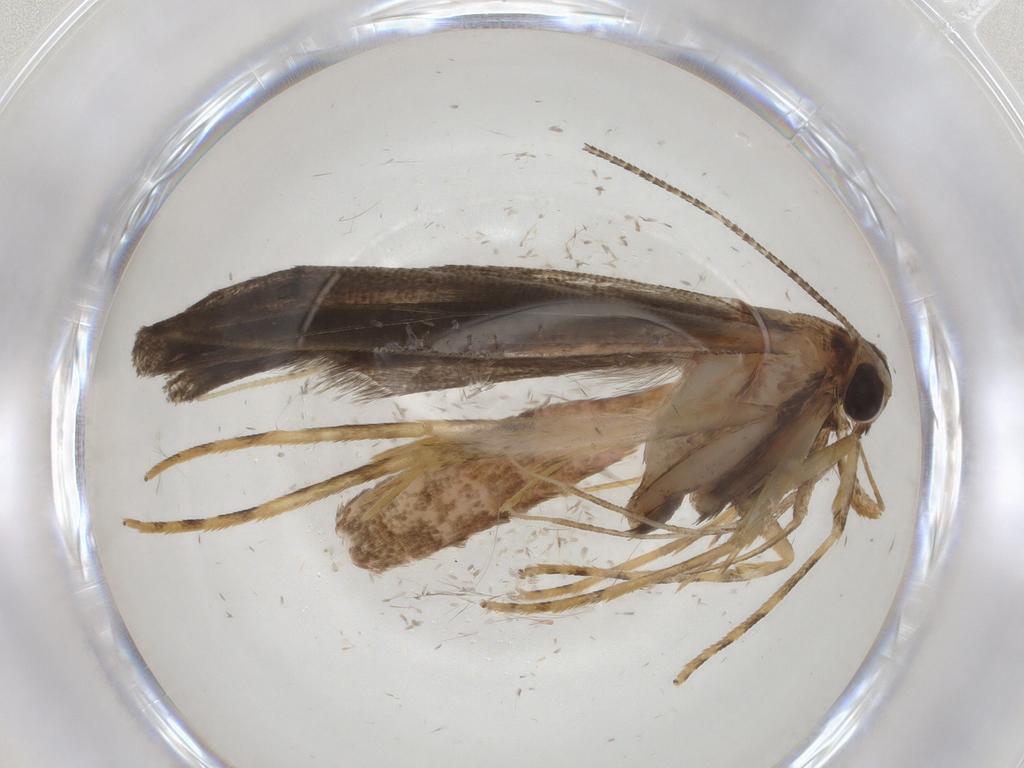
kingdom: Animalia
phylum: Arthropoda
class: Insecta
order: Lepidoptera
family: Cosmopterigidae
